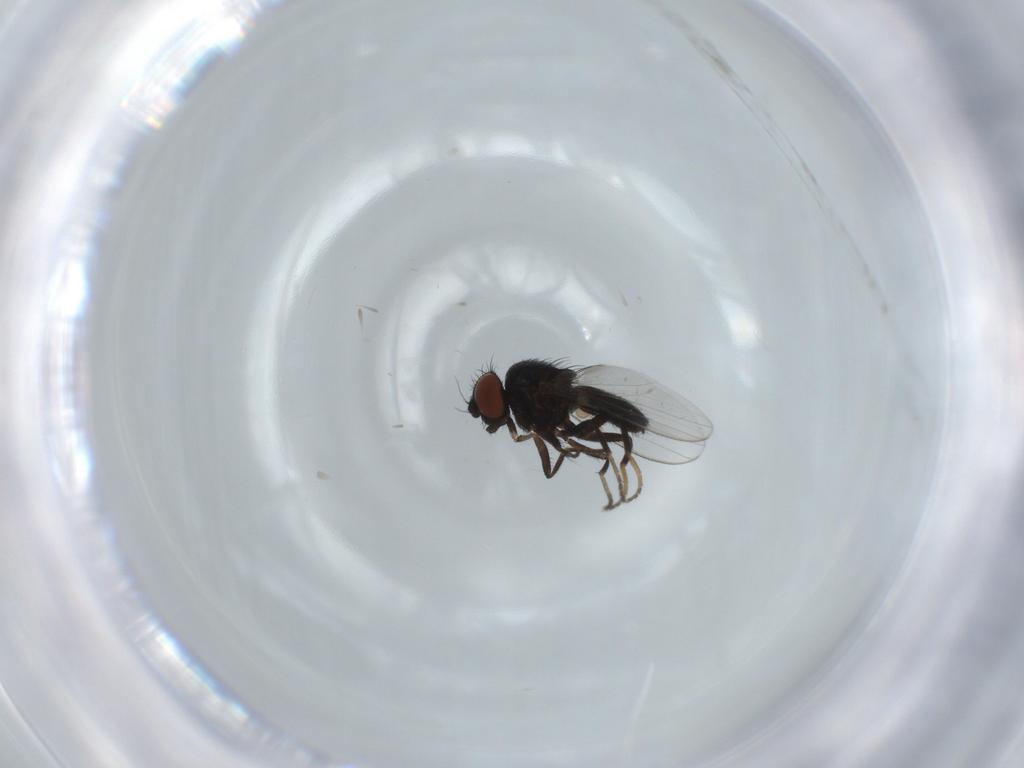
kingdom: Animalia
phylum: Arthropoda
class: Insecta
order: Diptera
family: Milichiidae
